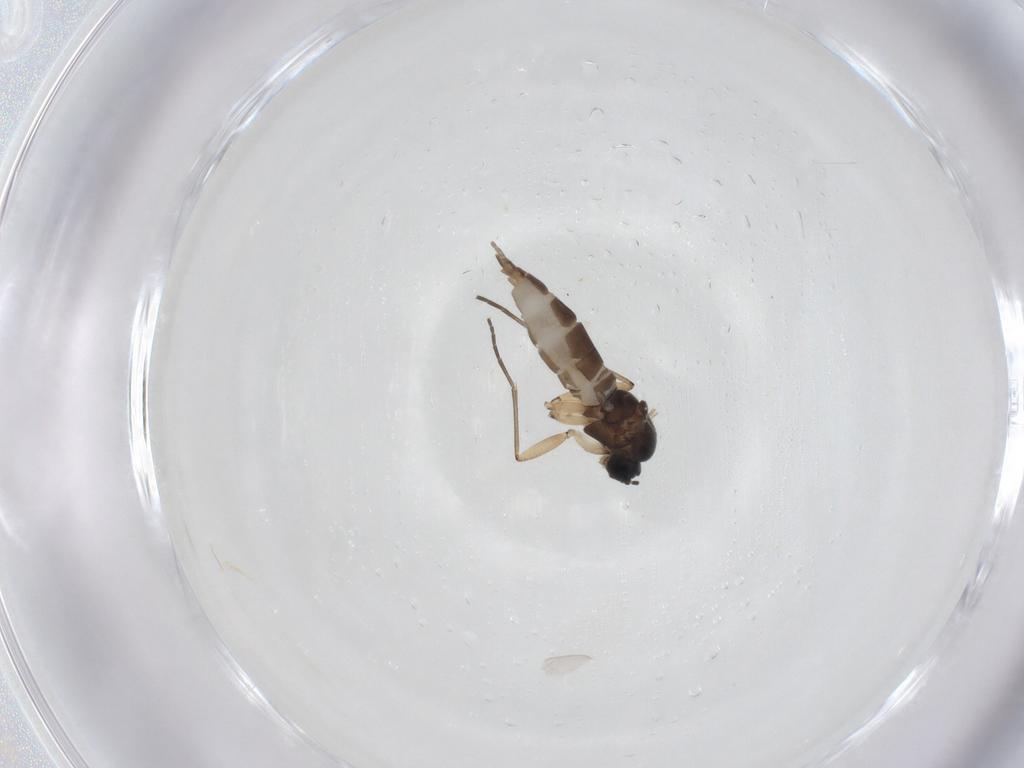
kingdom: Animalia
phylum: Arthropoda
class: Insecta
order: Diptera
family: Sciaridae
